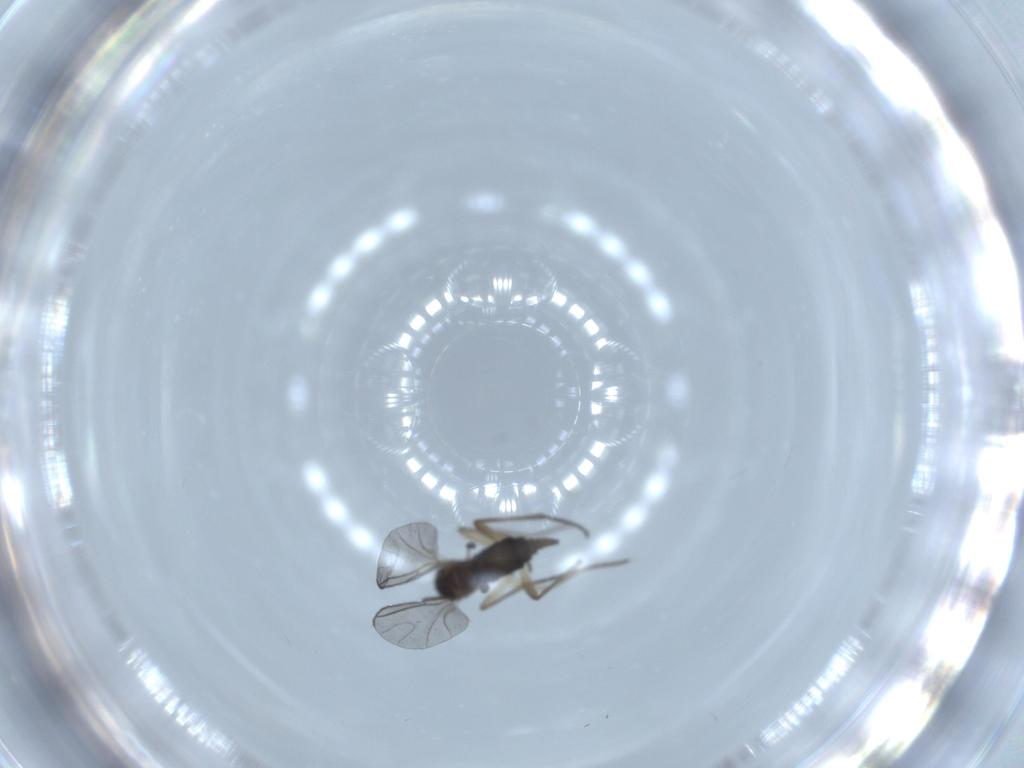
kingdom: Animalia
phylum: Arthropoda
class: Insecta
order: Diptera
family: Sciaridae
